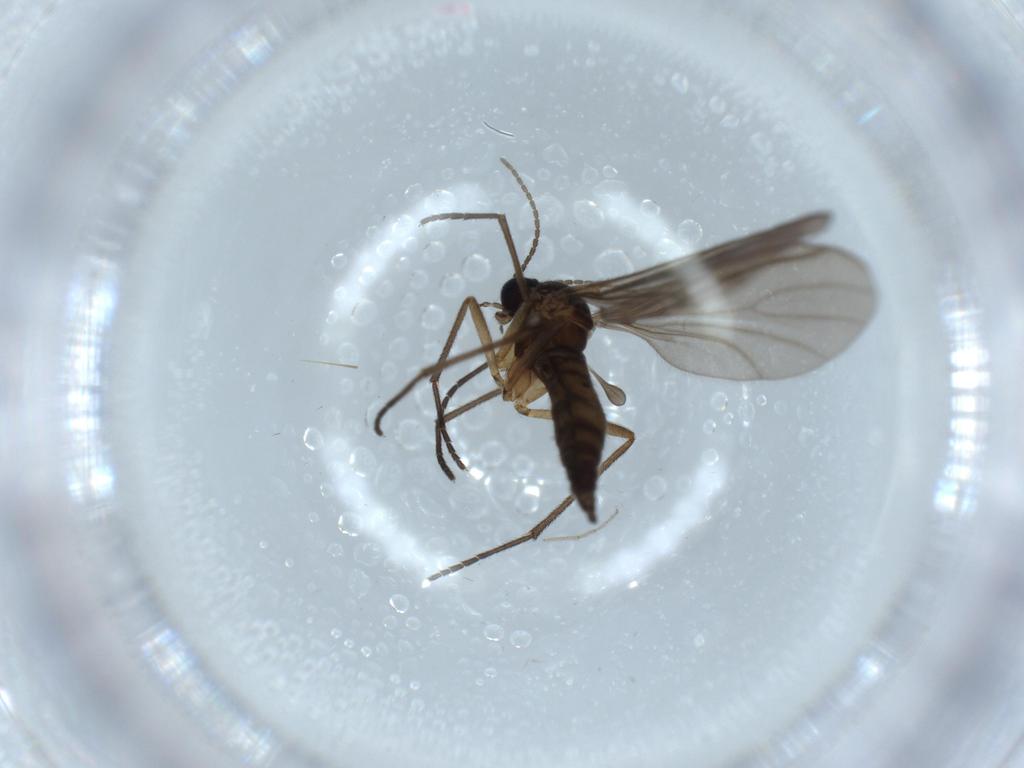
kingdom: Animalia
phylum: Arthropoda
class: Insecta
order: Diptera
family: Sciaridae
